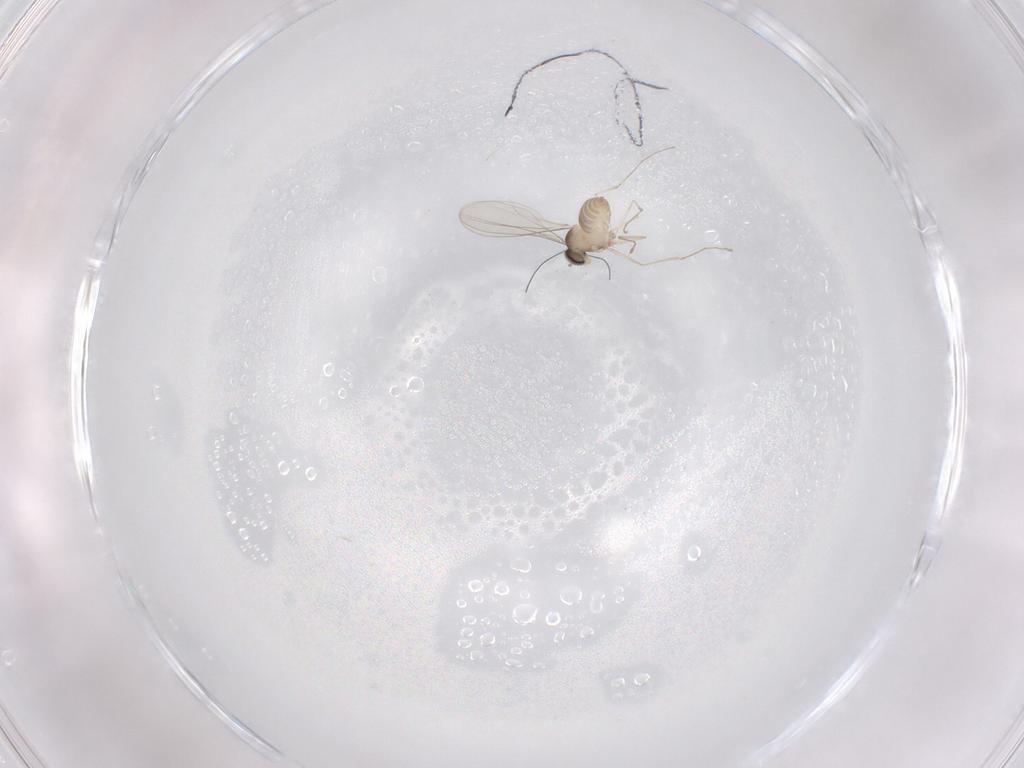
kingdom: Animalia
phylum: Arthropoda
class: Insecta
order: Diptera
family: Cecidomyiidae
